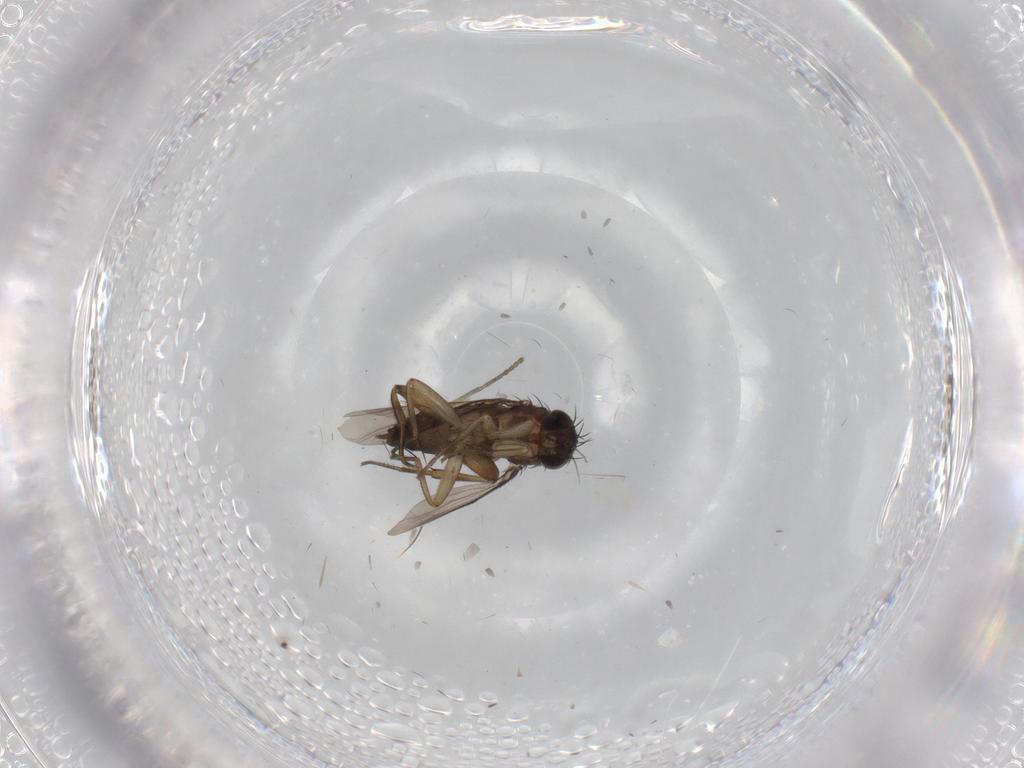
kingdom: Animalia
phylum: Arthropoda
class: Insecta
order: Diptera
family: Phoridae
